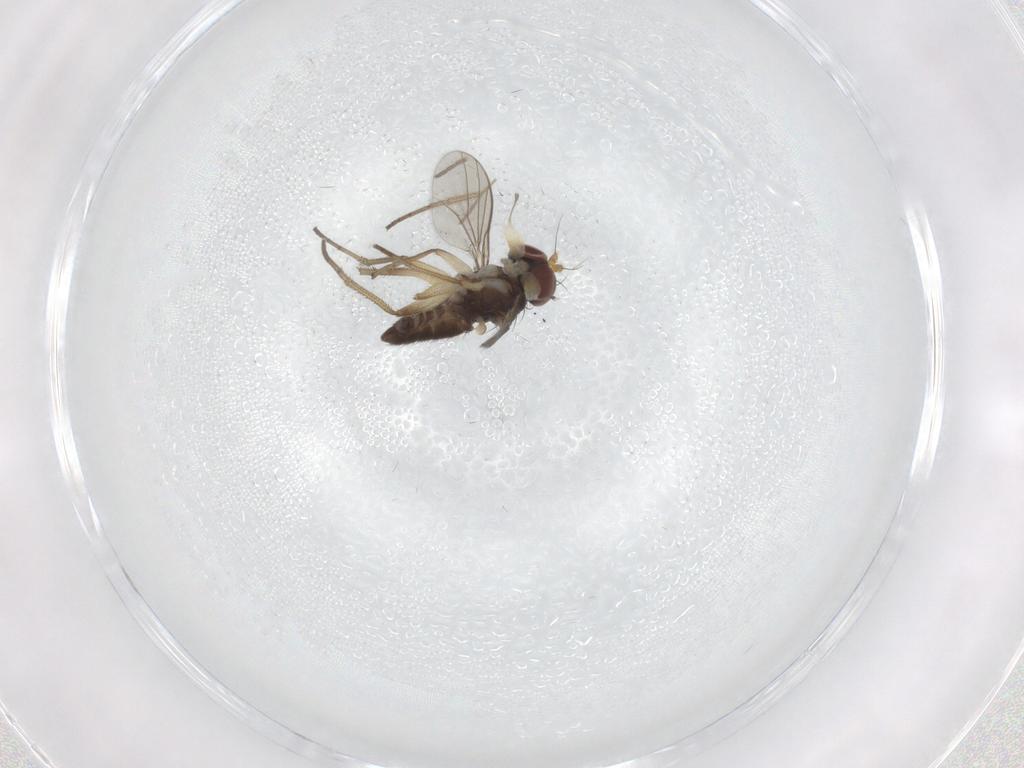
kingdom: Animalia
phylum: Arthropoda
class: Insecta
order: Diptera
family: Dolichopodidae
